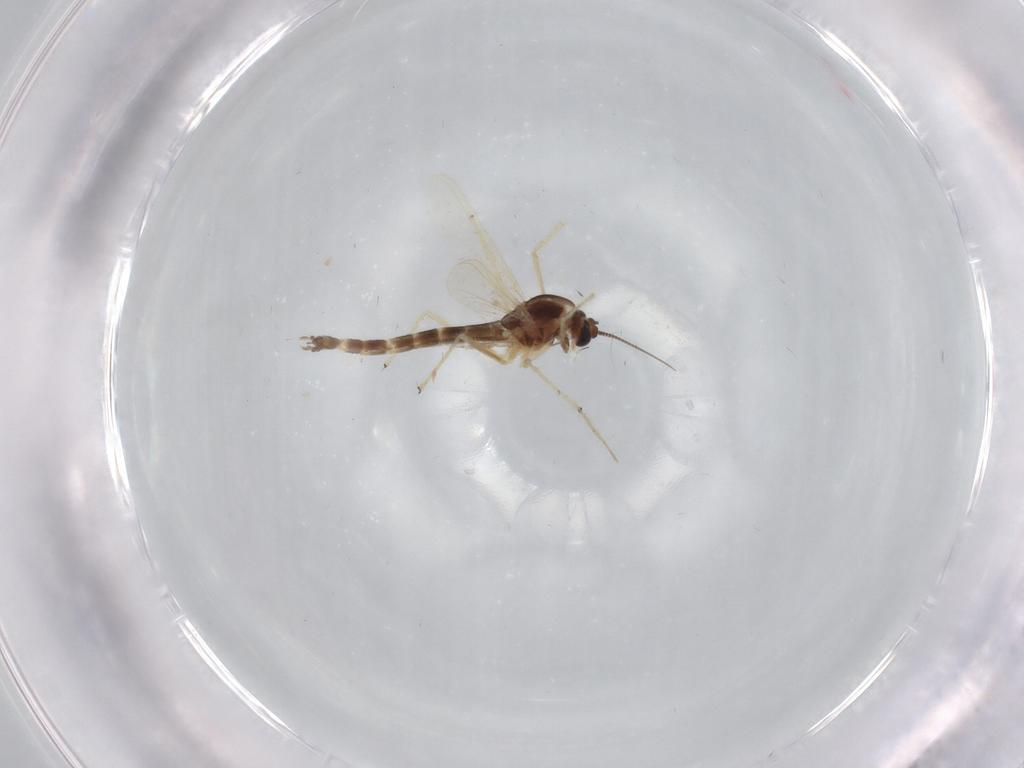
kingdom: Animalia
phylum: Arthropoda
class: Insecta
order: Diptera
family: Chironomidae
